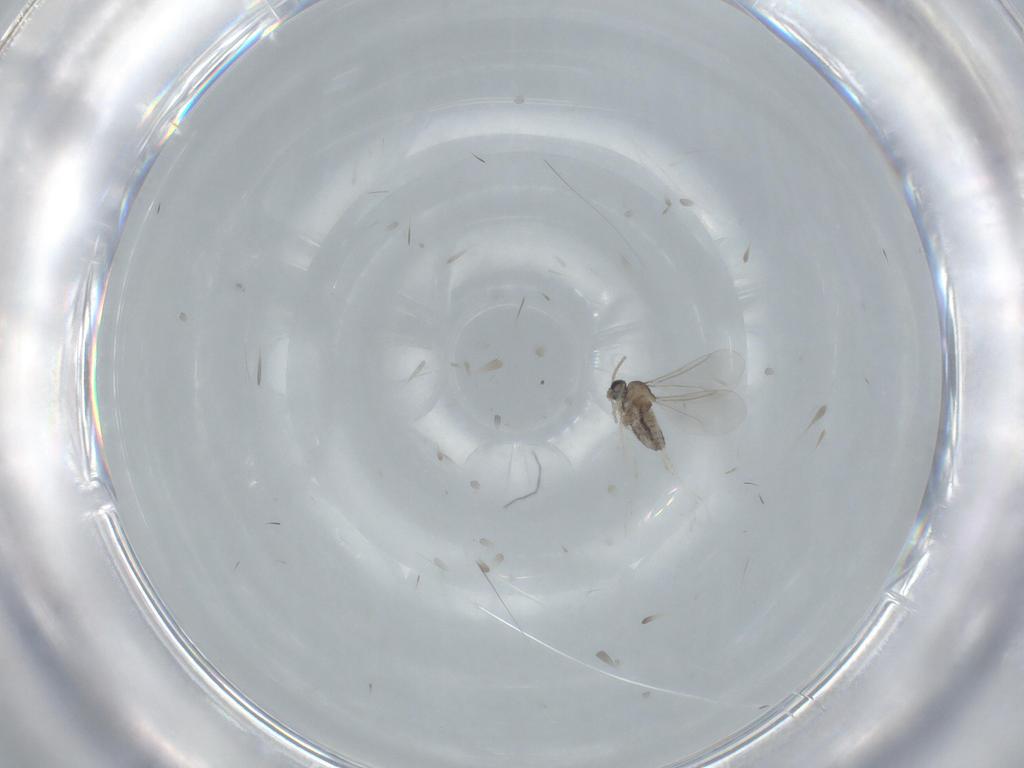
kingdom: Animalia
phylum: Arthropoda
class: Insecta
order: Diptera
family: Cecidomyiidae
